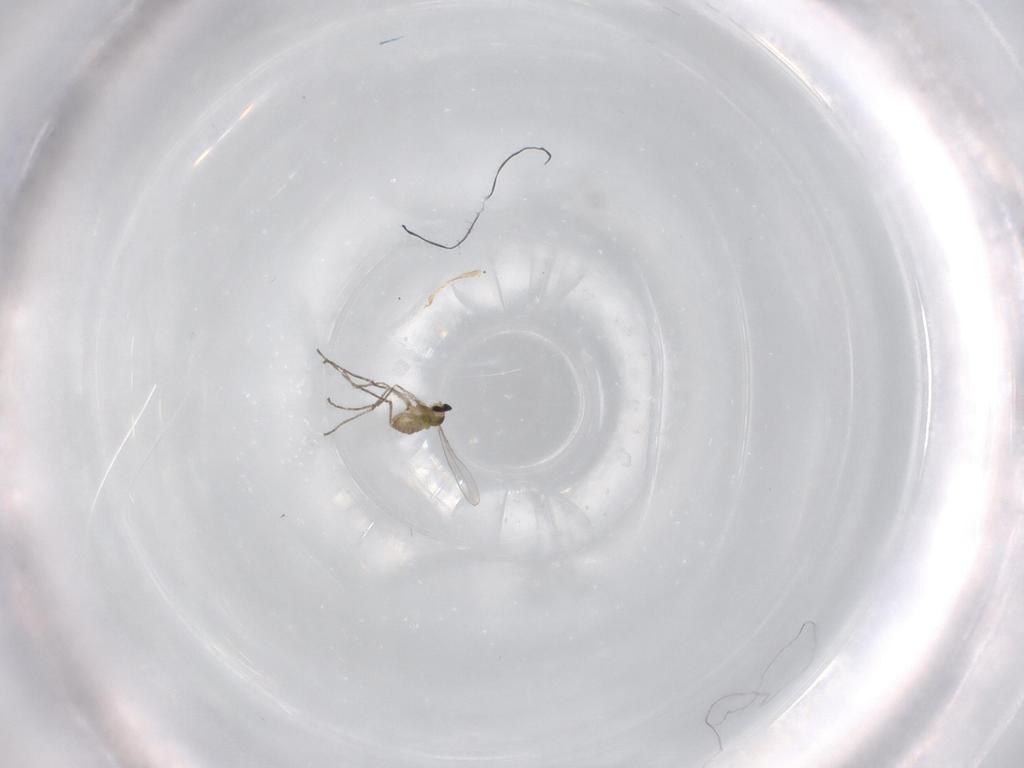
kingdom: Animalia
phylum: Arthropoda
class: Insecta
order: Diptera
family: Cecidomyiidae
